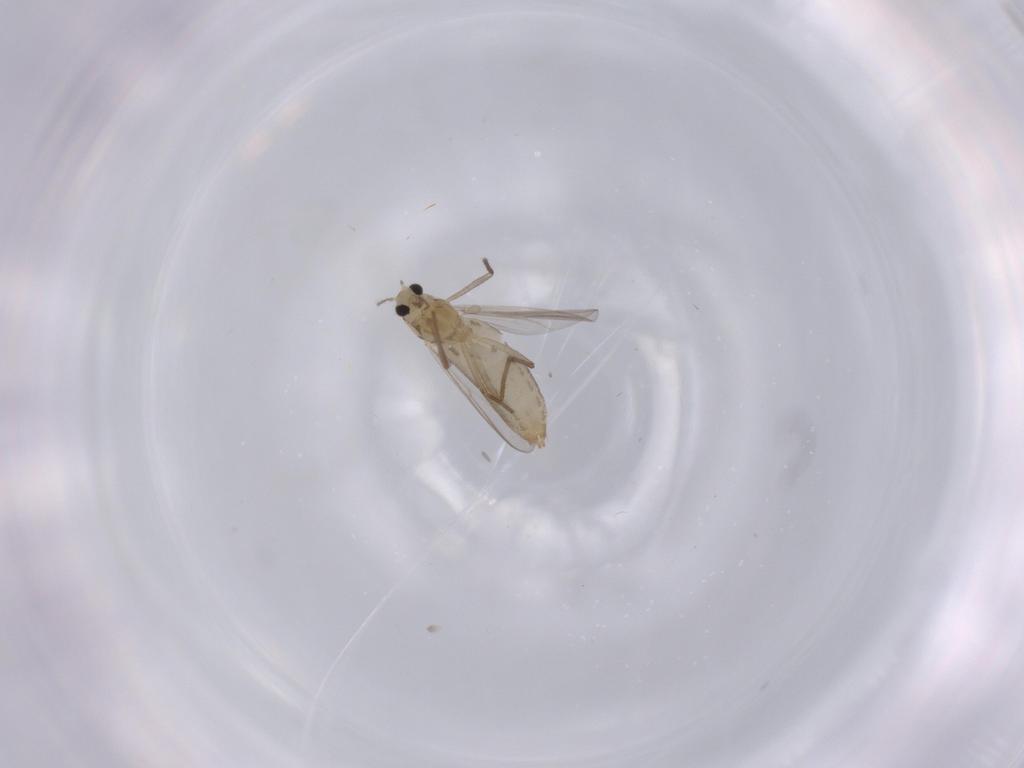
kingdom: Animalia
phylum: Arthropoda
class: Insecta
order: Diptera
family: Chironomidae
